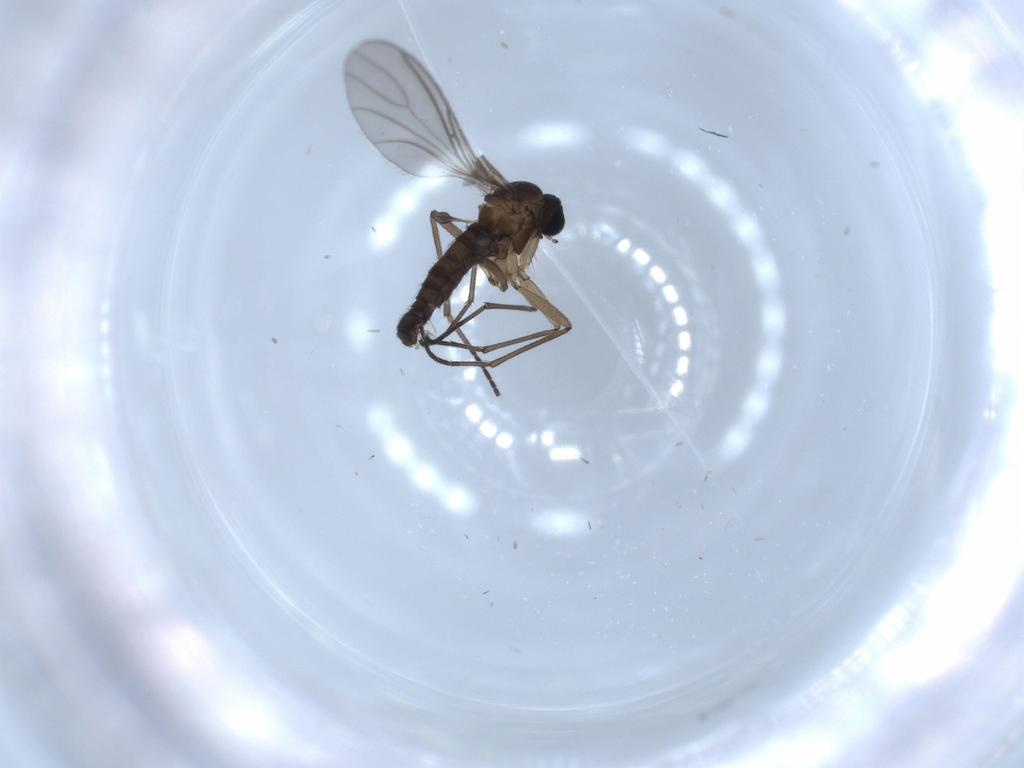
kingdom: Animalia
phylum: Arthropoda
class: Insecta
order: Diptera
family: Sciaridae
